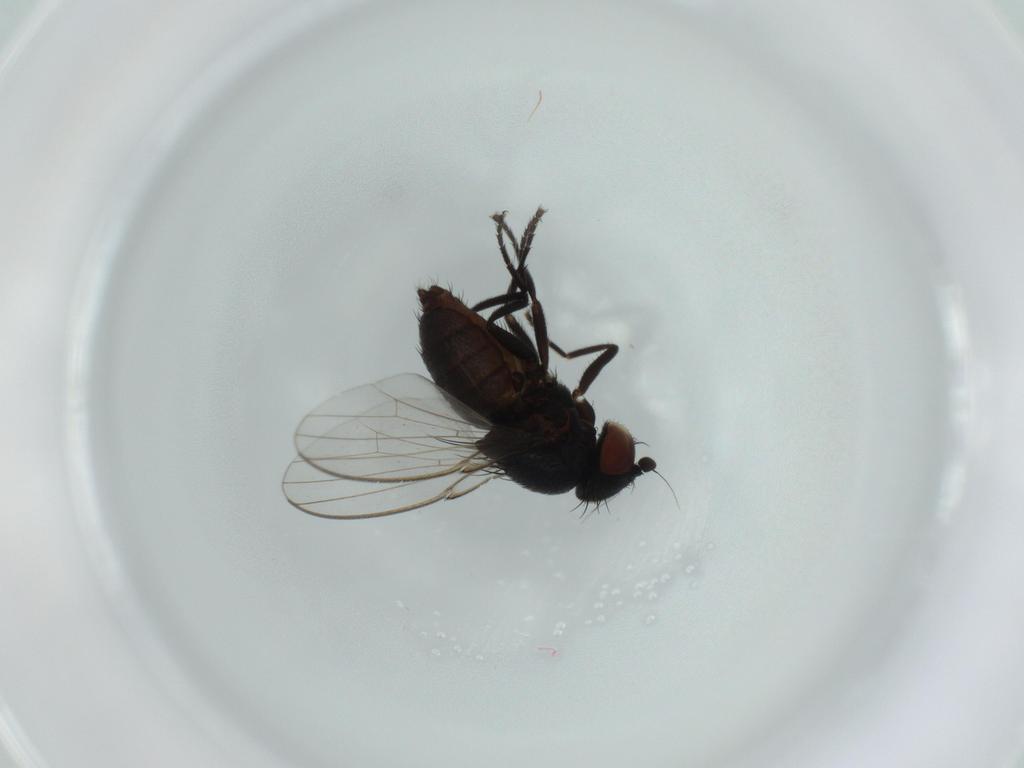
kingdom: Animalia
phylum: Arthropoda
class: Insecta
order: Diptera
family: Milichiidae
